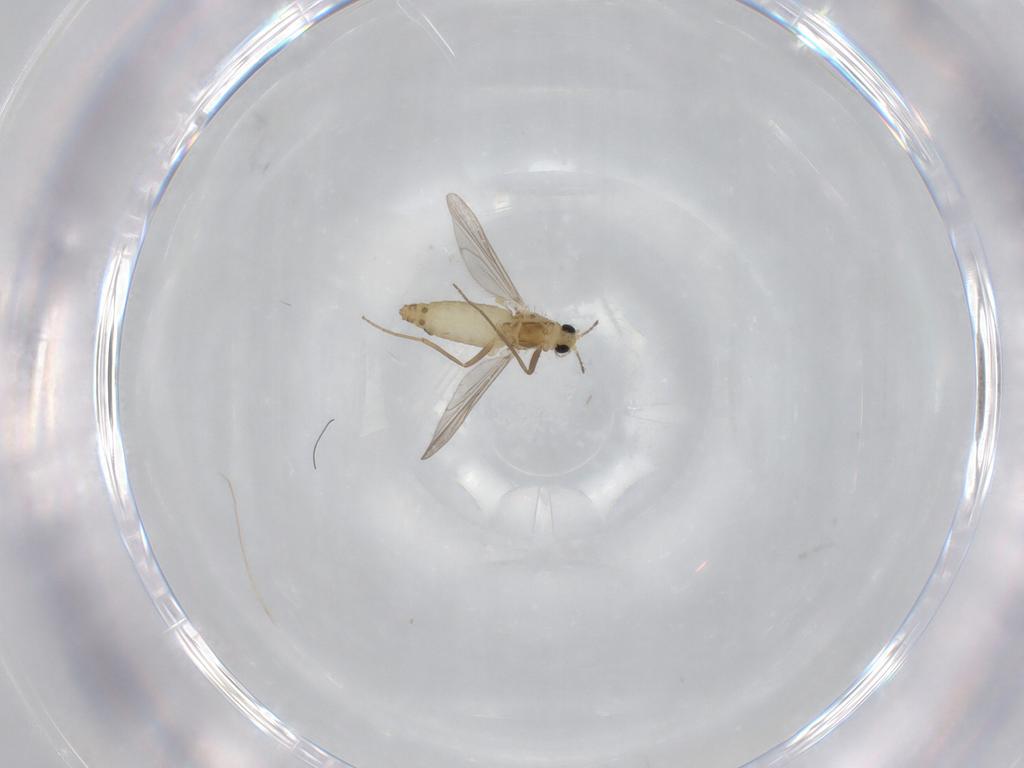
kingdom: Animalia
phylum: Arthropoda
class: Insecta
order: Diptera
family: Chironomidae
